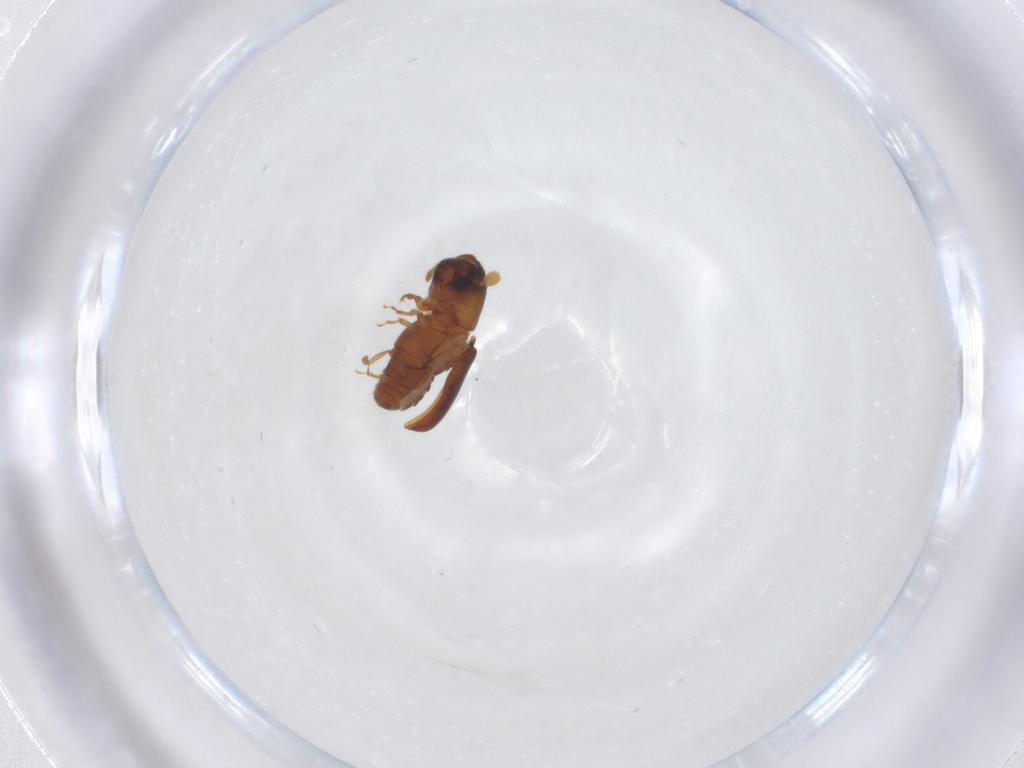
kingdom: Animalia
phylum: Arthropoda
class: Insecta
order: Coleoptera
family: Curculionidae
